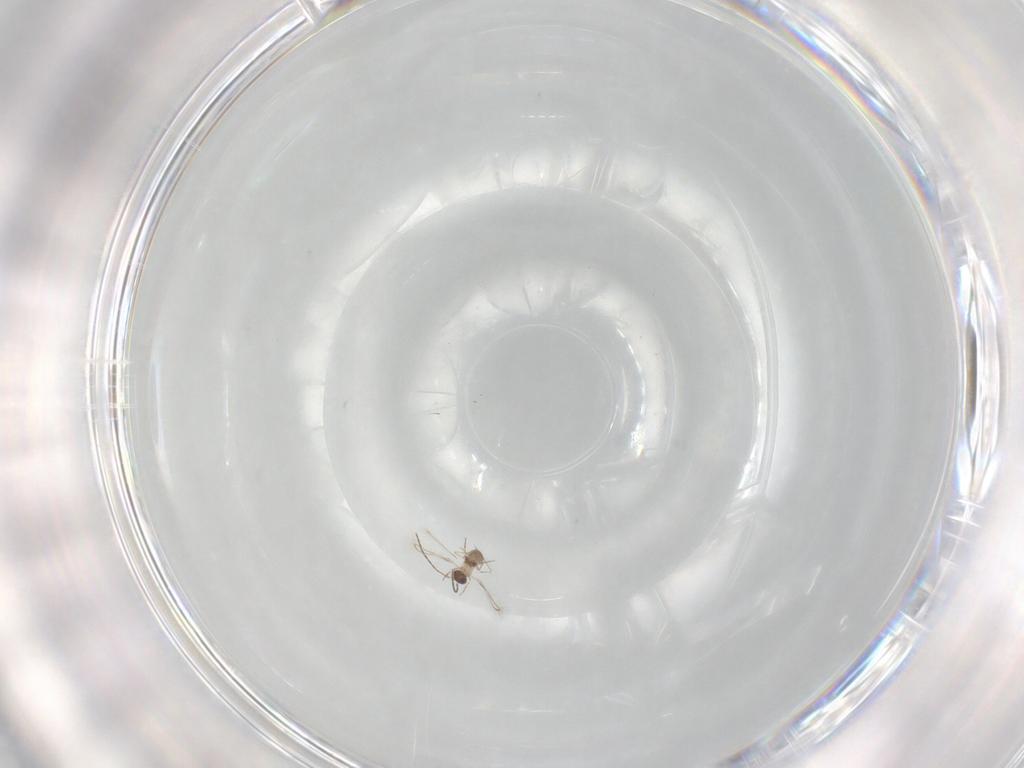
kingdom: Animalia
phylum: Arthropoda
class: Insecta
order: Hymenoptera
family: Mymaridae
